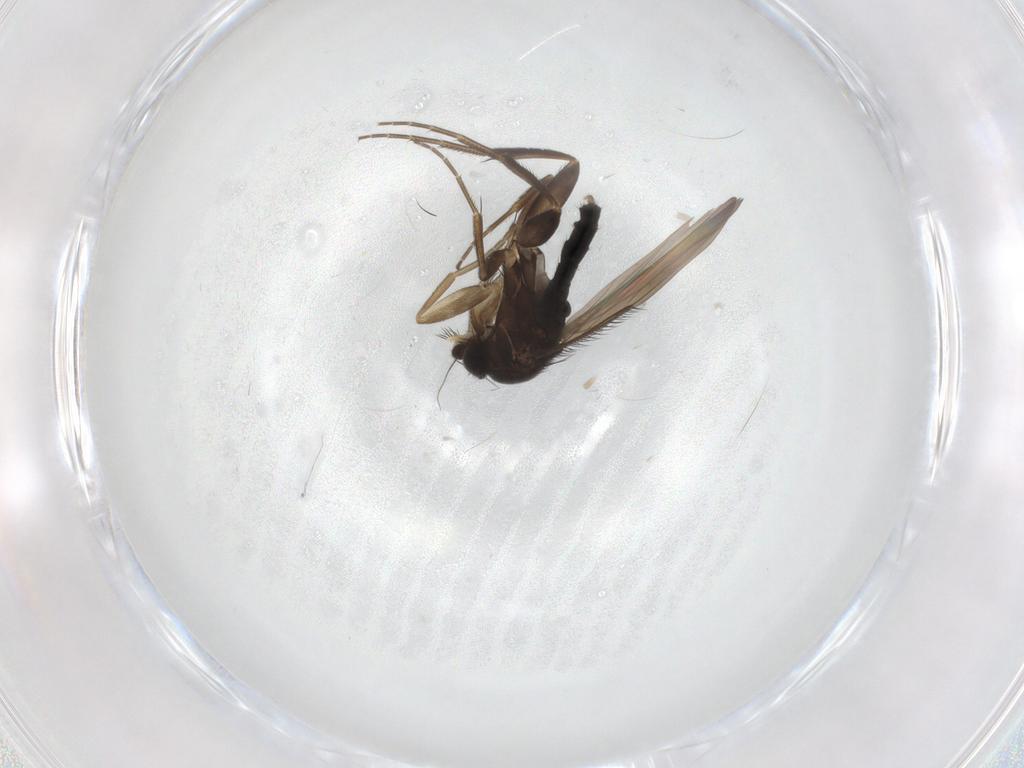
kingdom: Animalia
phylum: Arthropoda
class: Insecta
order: Diptera
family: Phoridae
